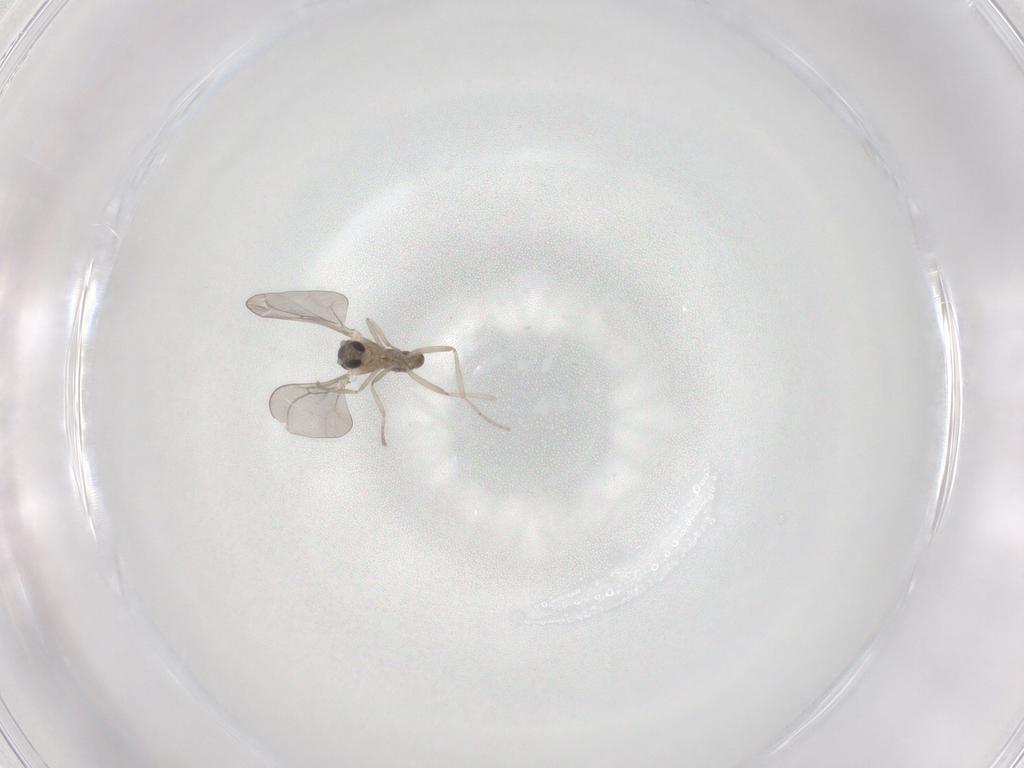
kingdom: Animalia
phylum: Arthropoda
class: Insecta
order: Diptera
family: Cecidomyiidae
